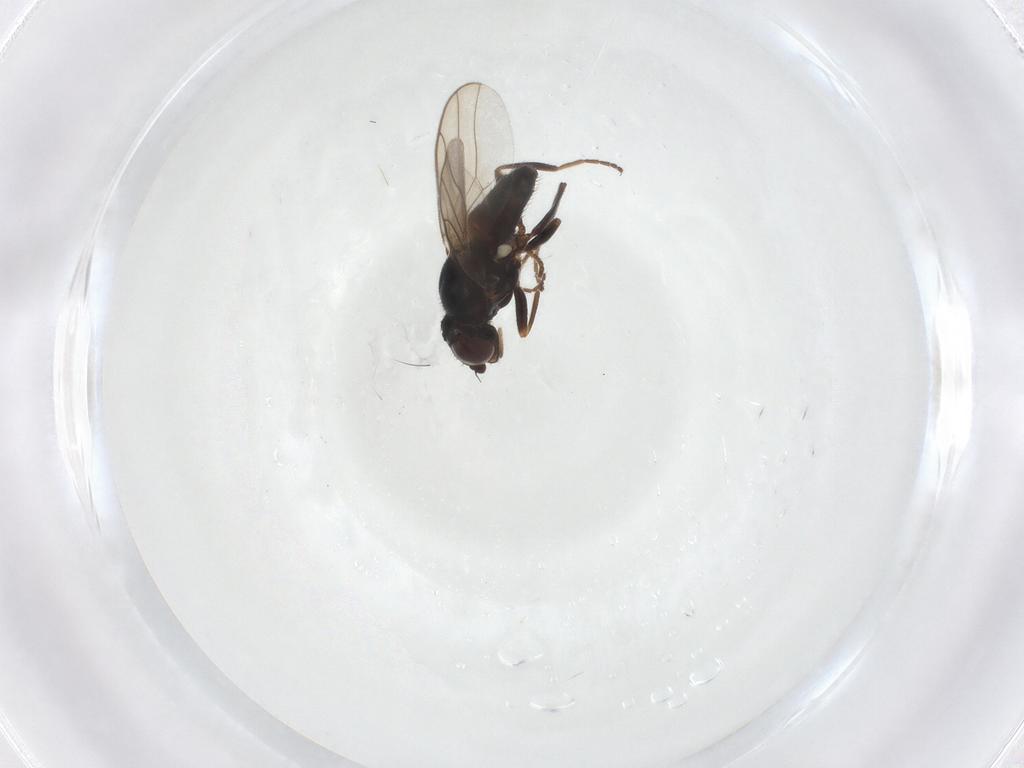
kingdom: Animalia
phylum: Arthropoda
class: Insecta
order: Diptera
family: Chloropidae
